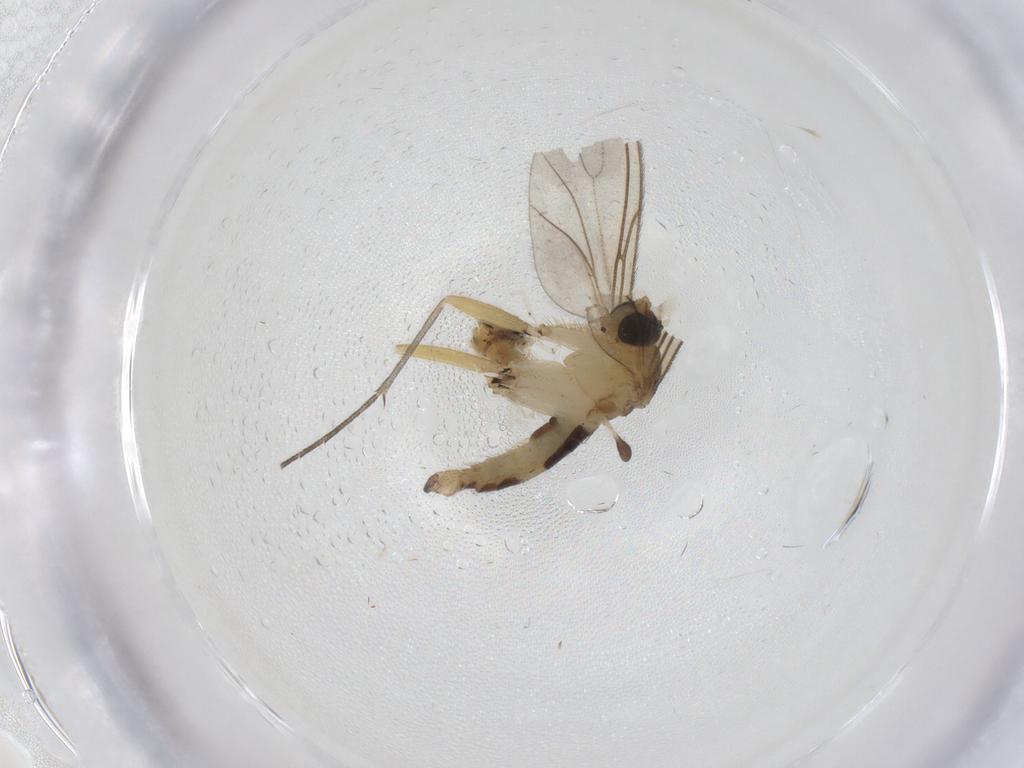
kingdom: Animalia
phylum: Arthropoda
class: Insecta
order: Diptera
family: Sciaridae
